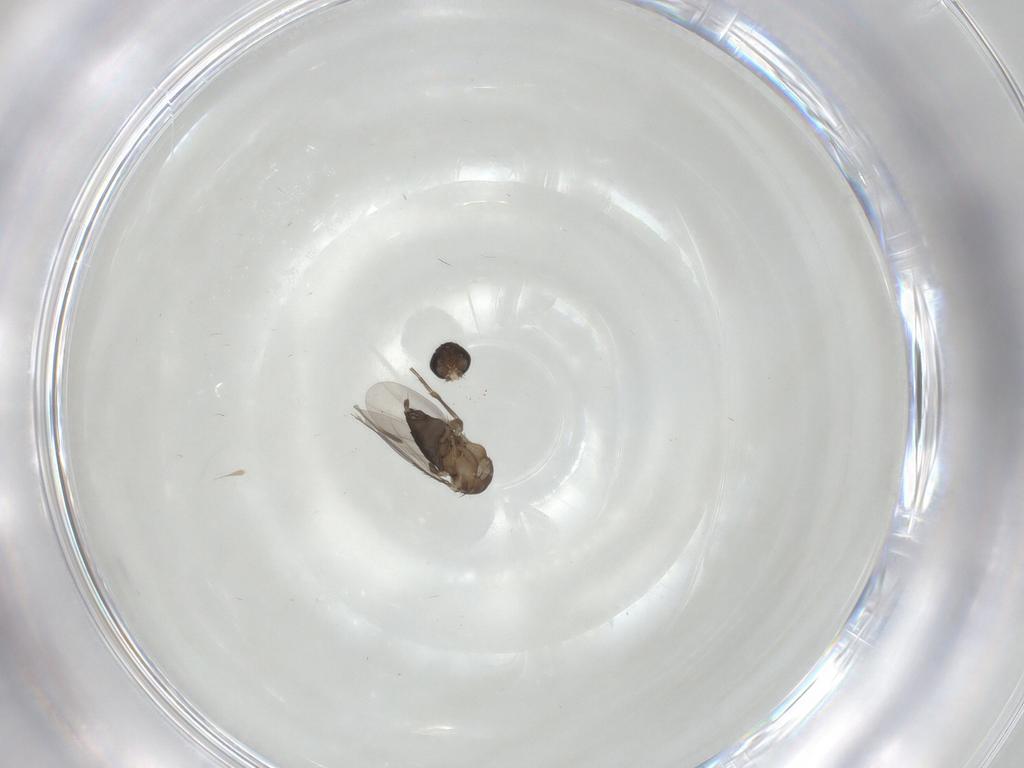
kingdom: Animalia
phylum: Arthropoda
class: Insecta
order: Diptera
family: Phoridae
